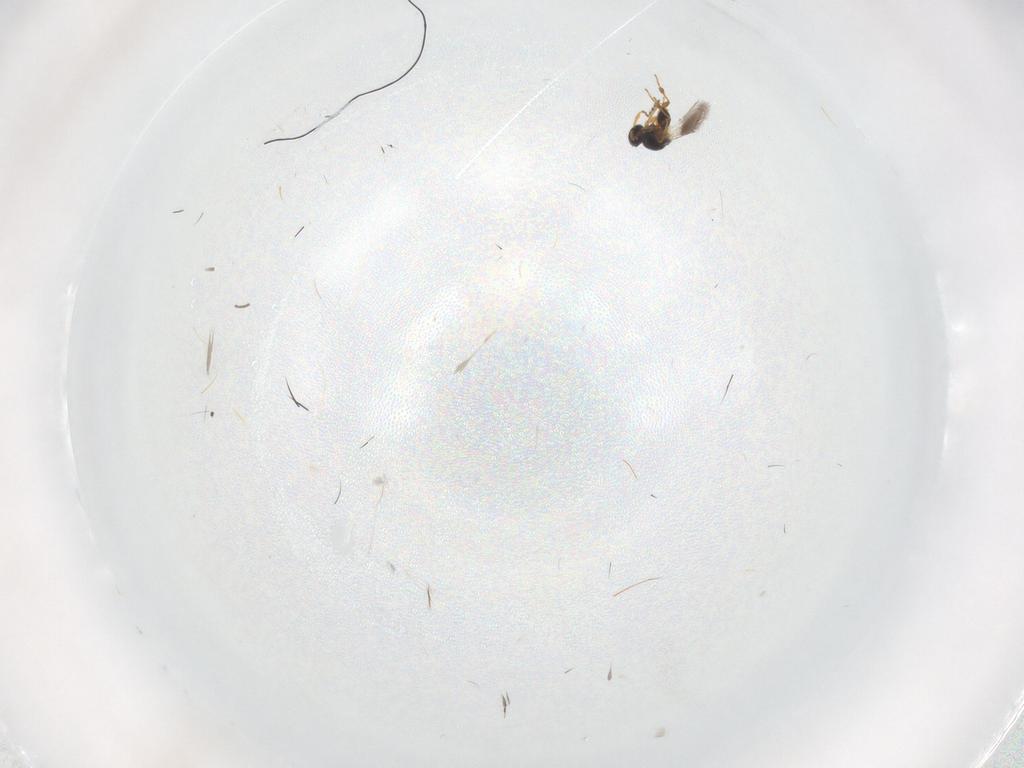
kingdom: Animalia
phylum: Arthropoda
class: Insecta
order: Hymenoptera
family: Platygastridae
